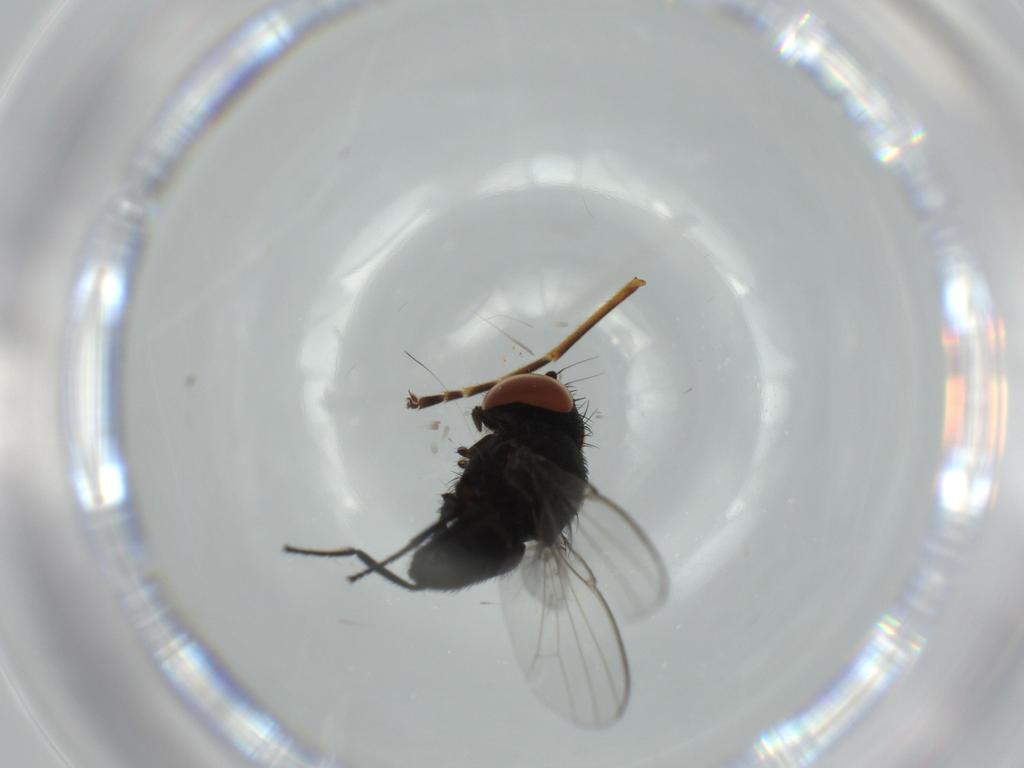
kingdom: Animalia
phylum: Arthropoda
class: Insecta
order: Diptera
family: Milichiidae
